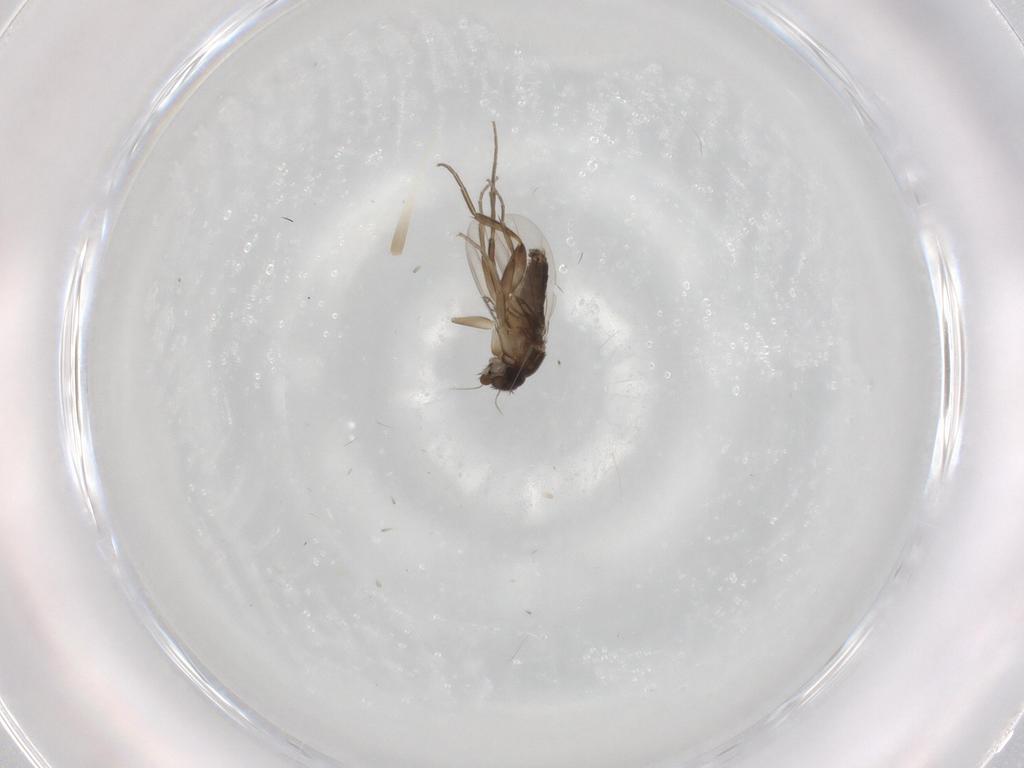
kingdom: Animalia
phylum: Arthropoda
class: Insecta
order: Diptera
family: Phoridae
